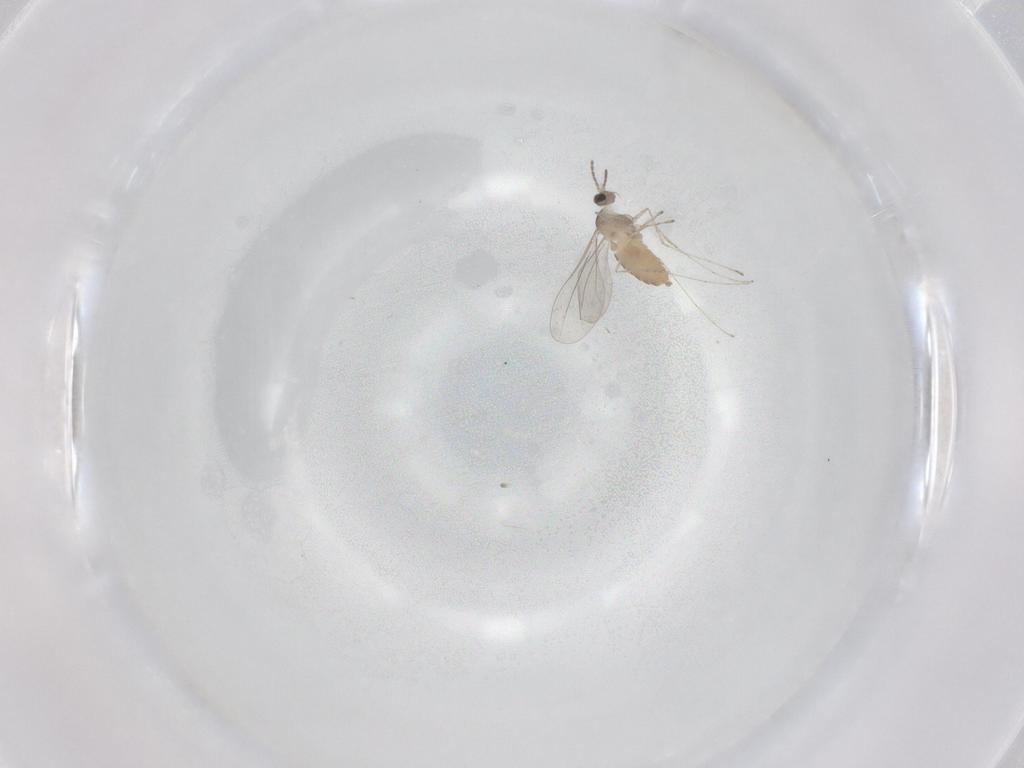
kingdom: Animalia
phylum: Arthropoda
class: Insecta
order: Diptera
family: Cecidomyiidae
